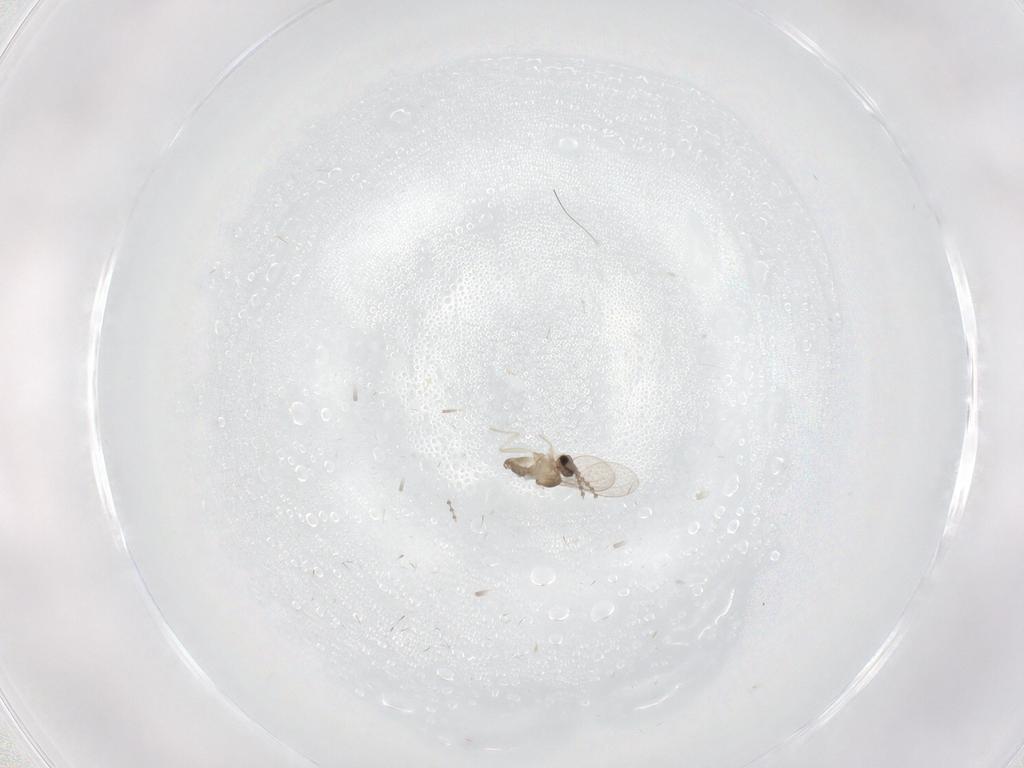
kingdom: Animalia
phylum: Arthropoda
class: Insecta
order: Diptera
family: Cecidomyiidae
